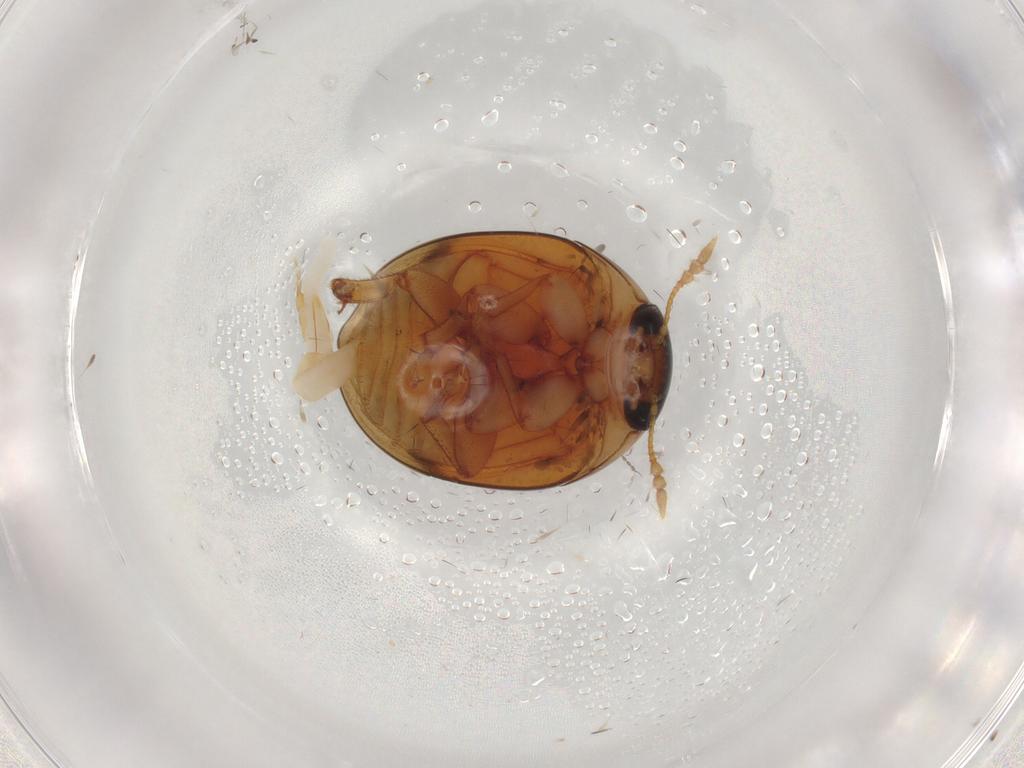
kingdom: Animalia
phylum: Arthropoda
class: Insecta
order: Coleoptera
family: Phalacridae
